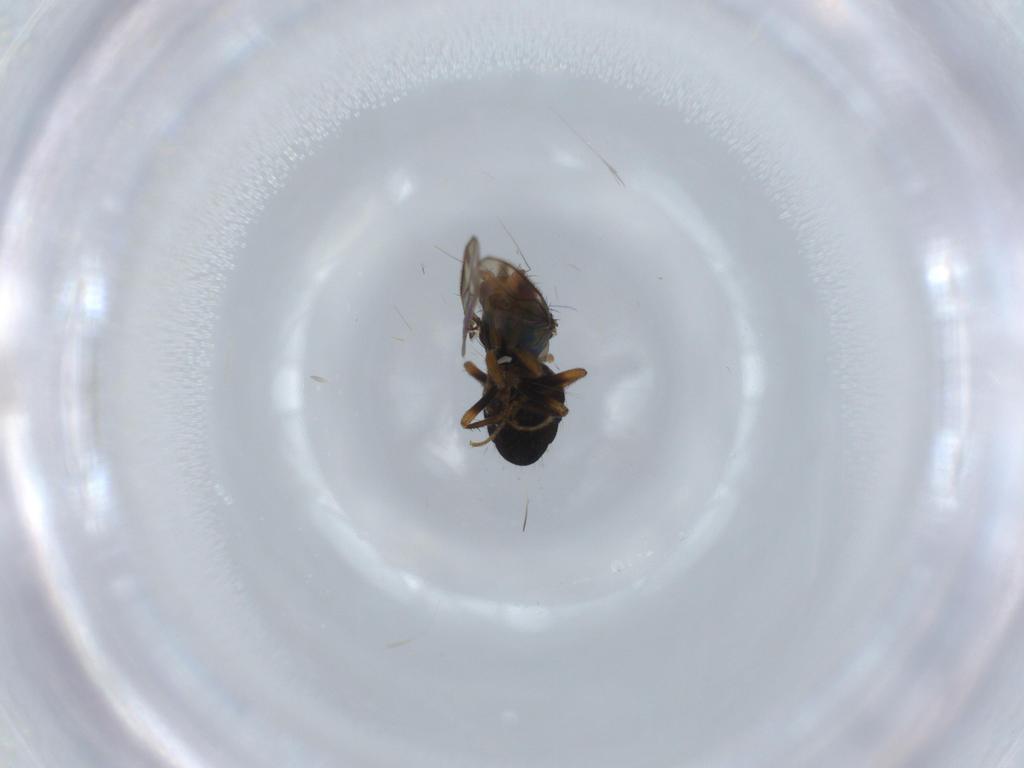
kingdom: Animalia
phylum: Arthropoda
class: Insecta
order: Diptera
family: Sphaeroceridae
